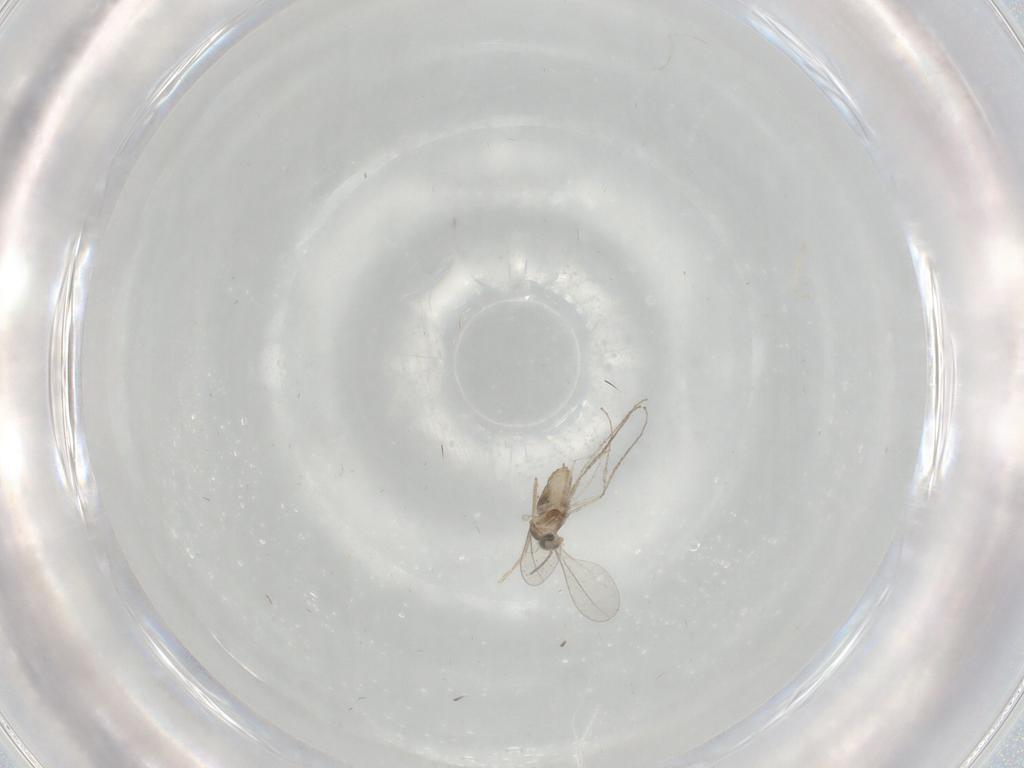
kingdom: Animalia
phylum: Arthropoda
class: Insecta
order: Diptera
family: Cecidomyiidae
